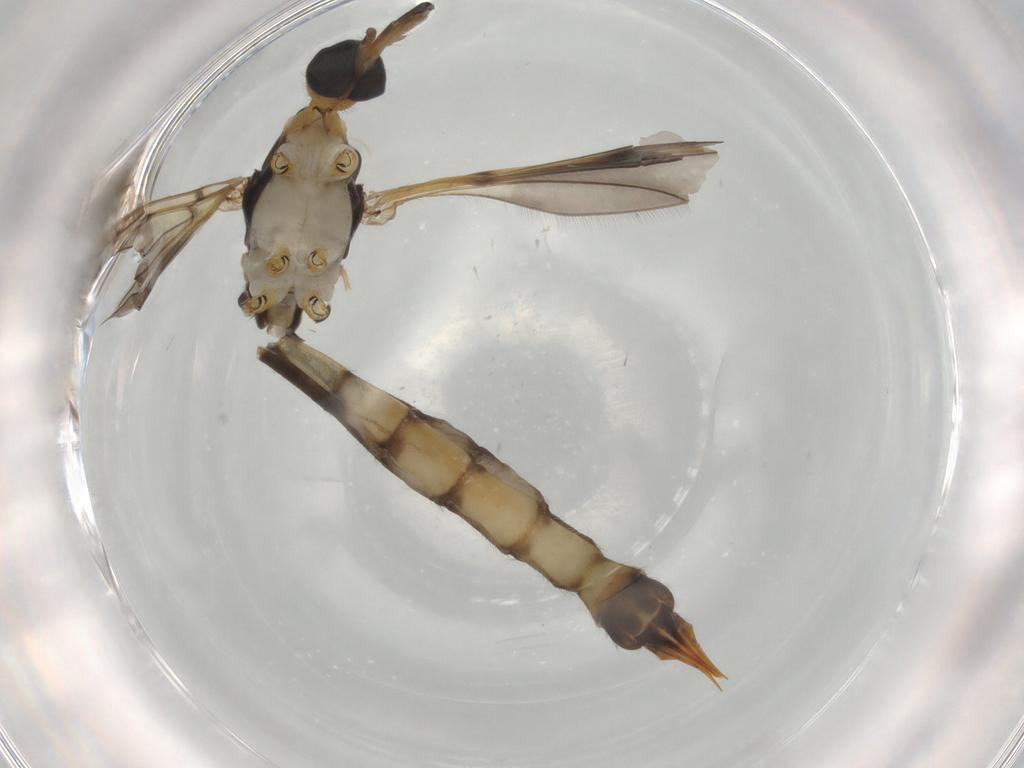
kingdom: Animalia
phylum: Arthropoda
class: Insecta
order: Diptera
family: Ceratopogonidae
